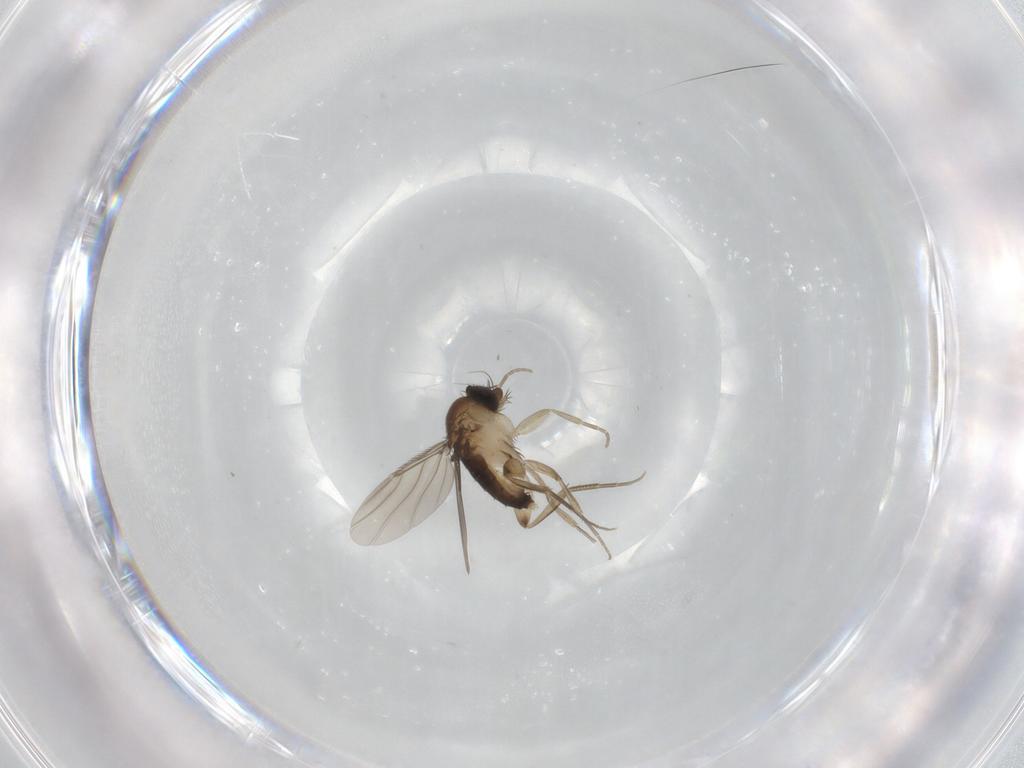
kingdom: Animalia
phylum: Arthropoda
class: Insecta
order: Diptera
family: Phoridae
